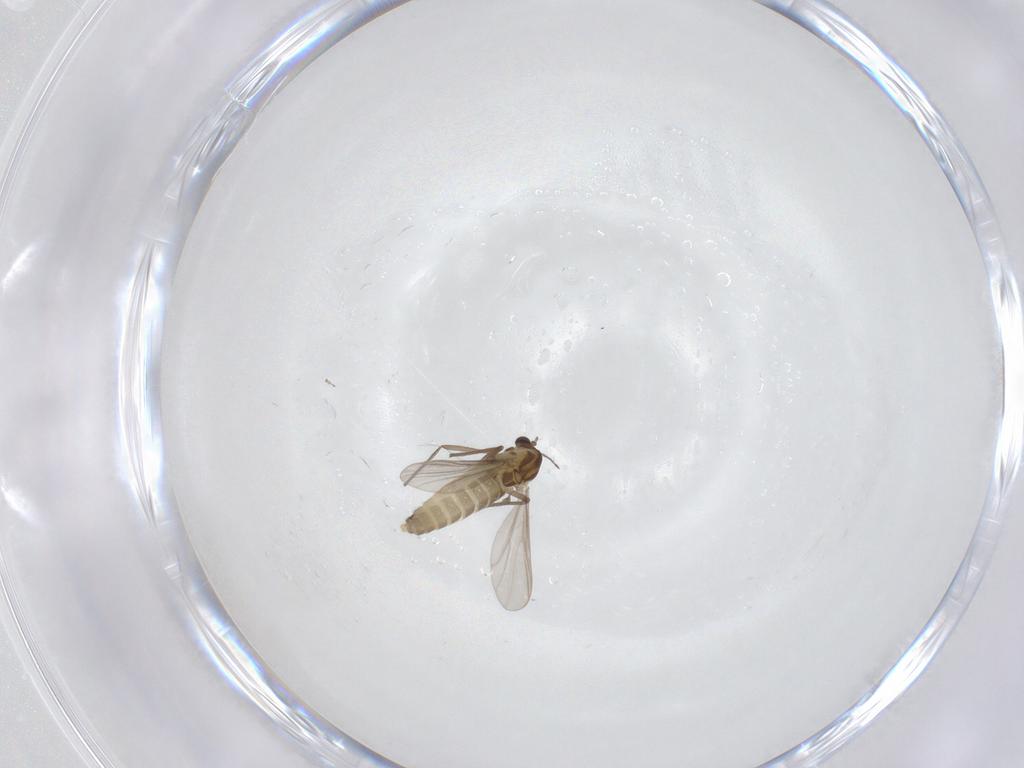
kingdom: Animalia
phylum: Arthropoda
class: Insecta
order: Diptera
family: Chironomidae
